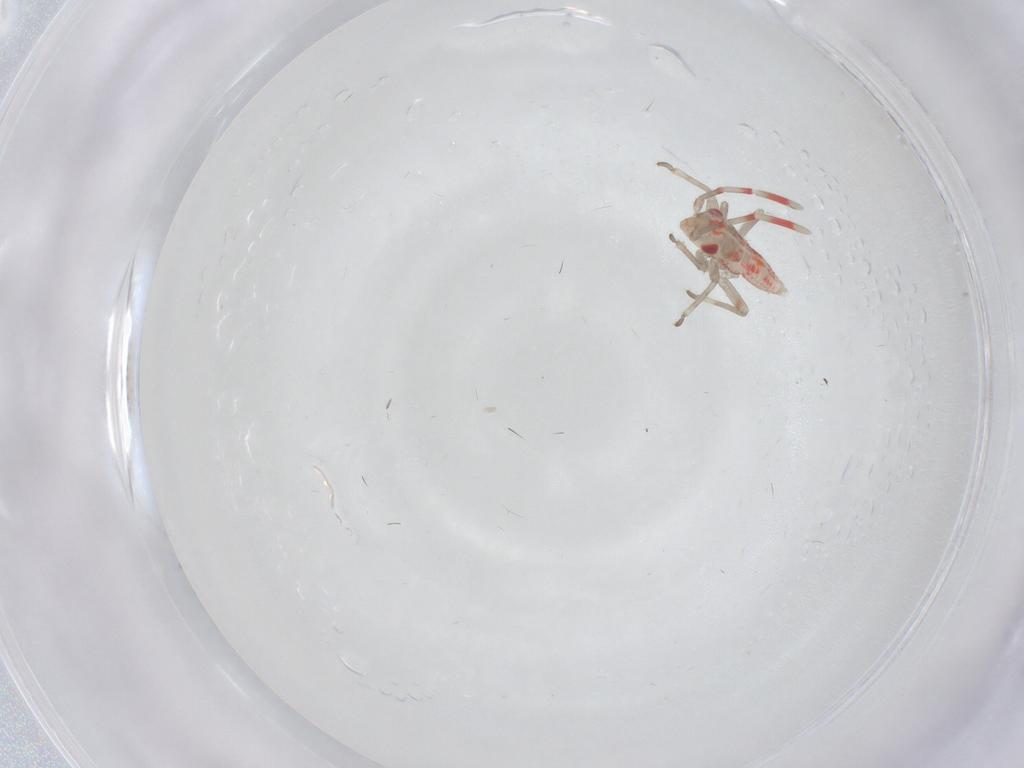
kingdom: Animalia
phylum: Arthropoda
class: Insecta
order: Hemiptera
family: Miridae
